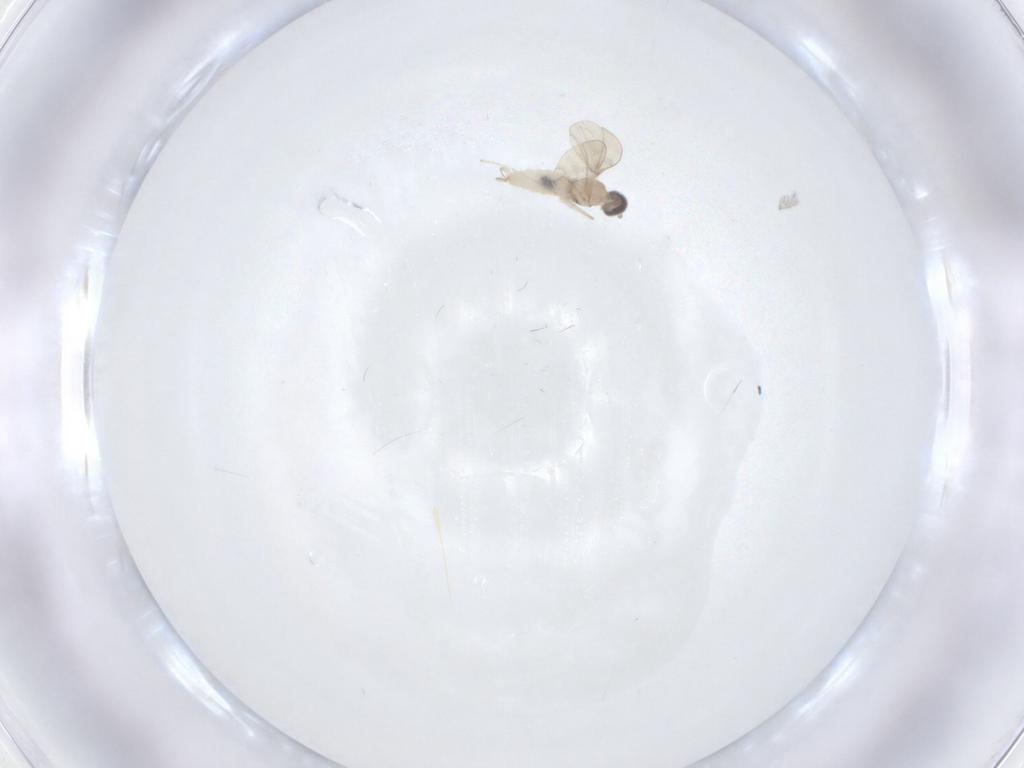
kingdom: Animalia
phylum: Arthropoda
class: Insecta
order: Diptera
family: Cecidomyiidae
